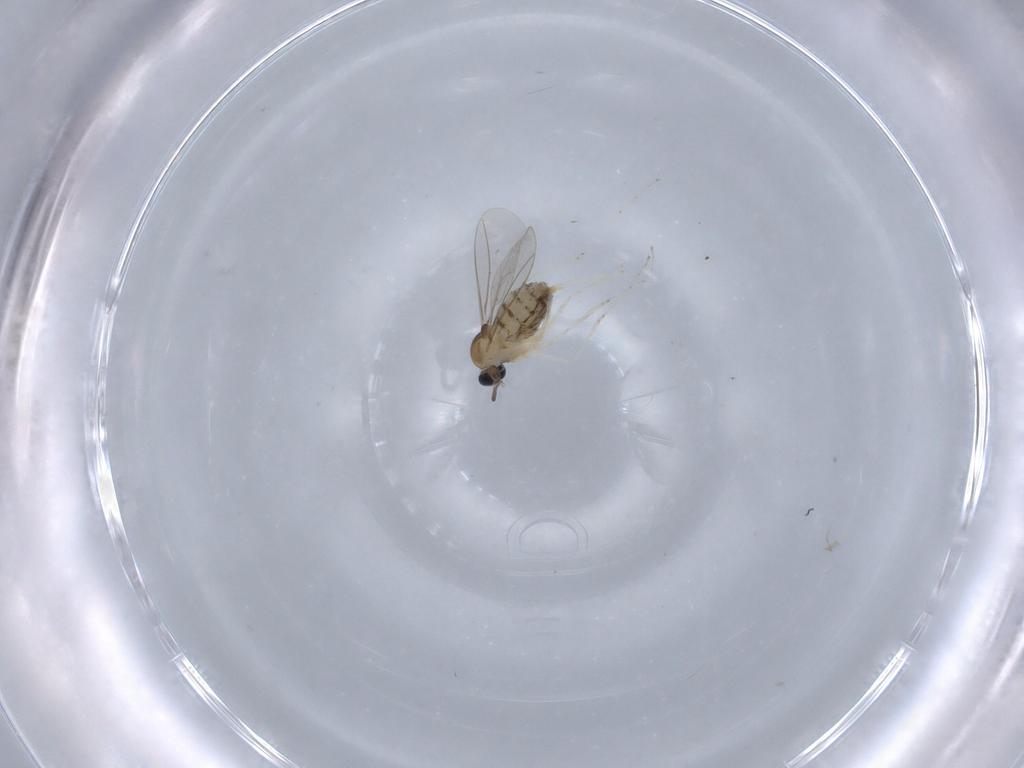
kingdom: Animalia
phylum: Arthropoda
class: Insecta
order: Diptera
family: Cecidomyiidae
